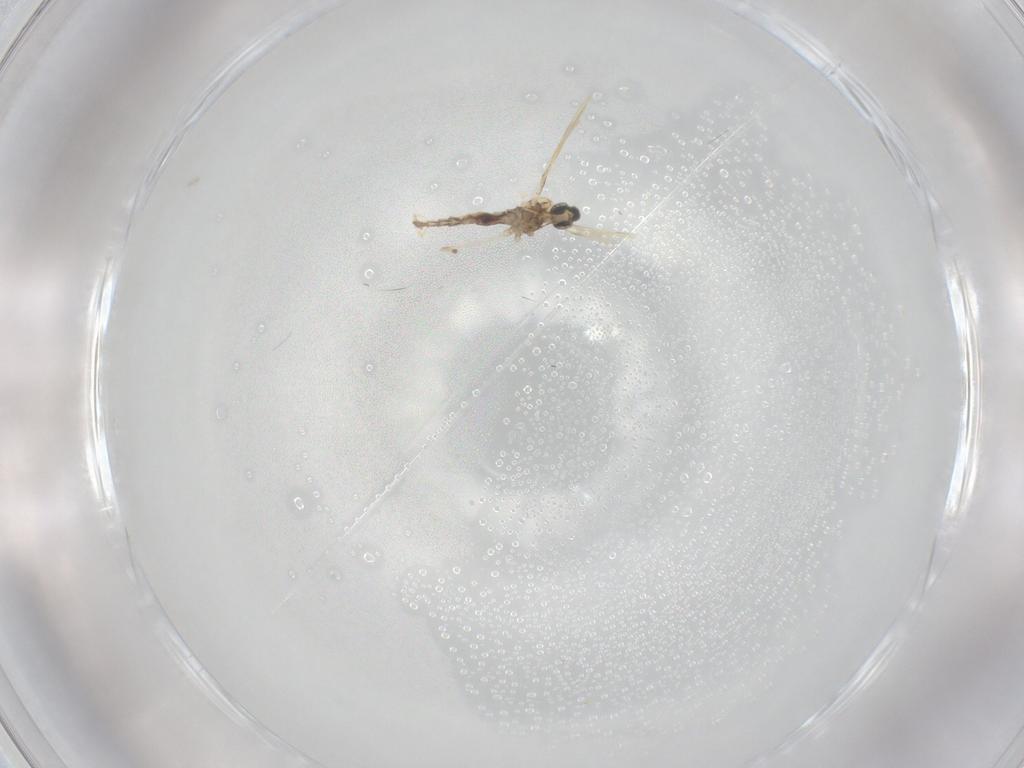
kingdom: Animalia
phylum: Arthropoda
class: Insecta
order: Diptera
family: Cecidomyiidae
